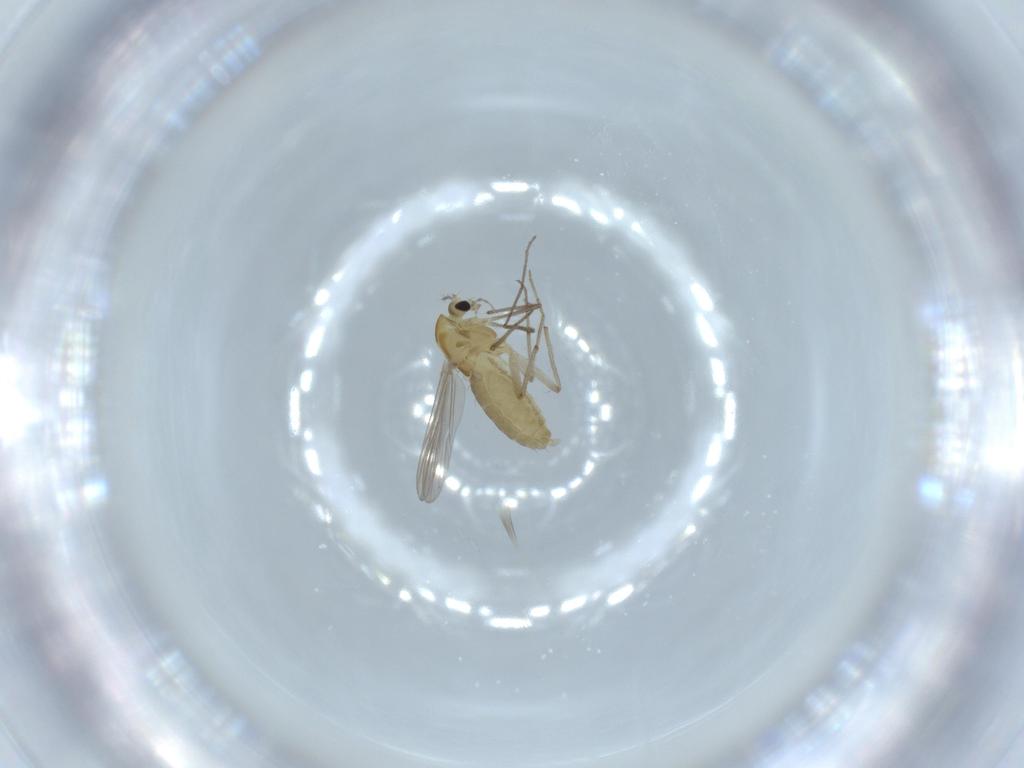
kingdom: Animalia
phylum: Arthropoda
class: Insecta
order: Diptera
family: Chironomidae
